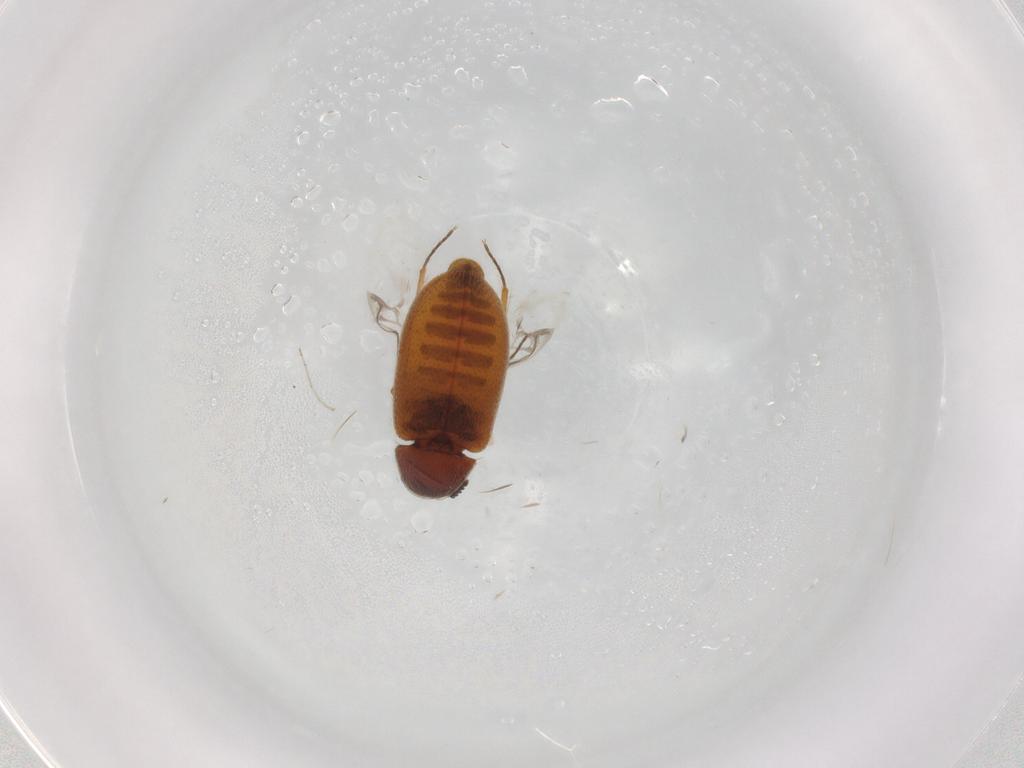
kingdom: Animalia
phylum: Arthropoda
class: Insecta
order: Coleoptera
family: Rhadalidae
